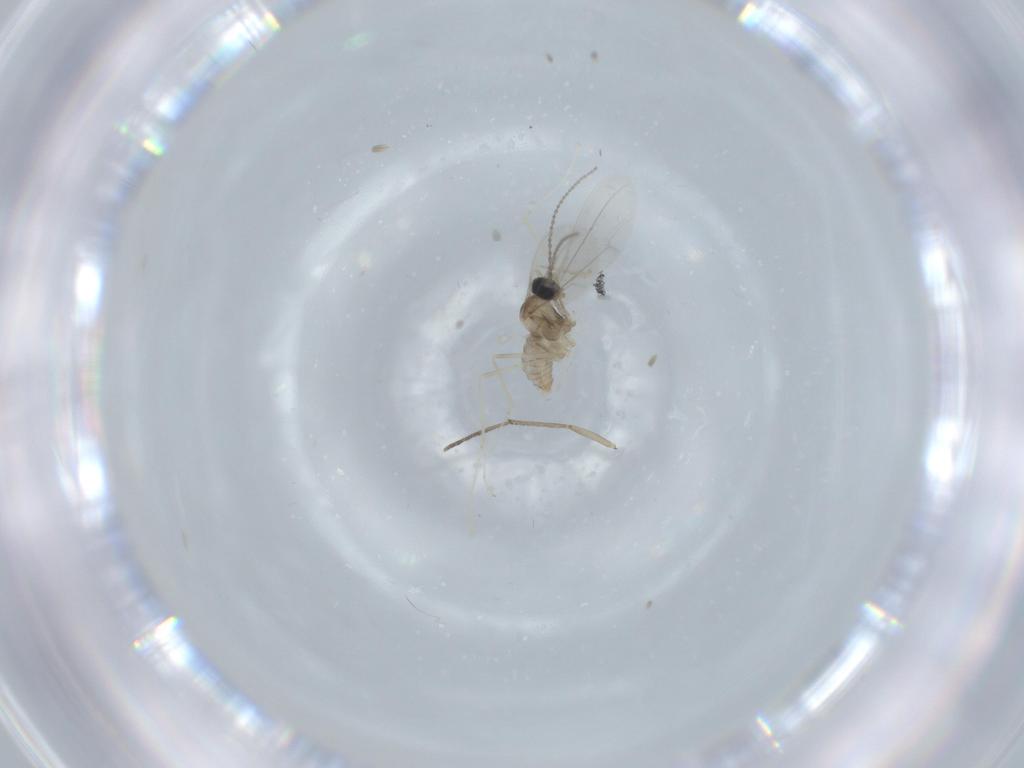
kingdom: Animalia
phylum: Arthropoda
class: Insecta
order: Diptera
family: Cecidomyiidae
